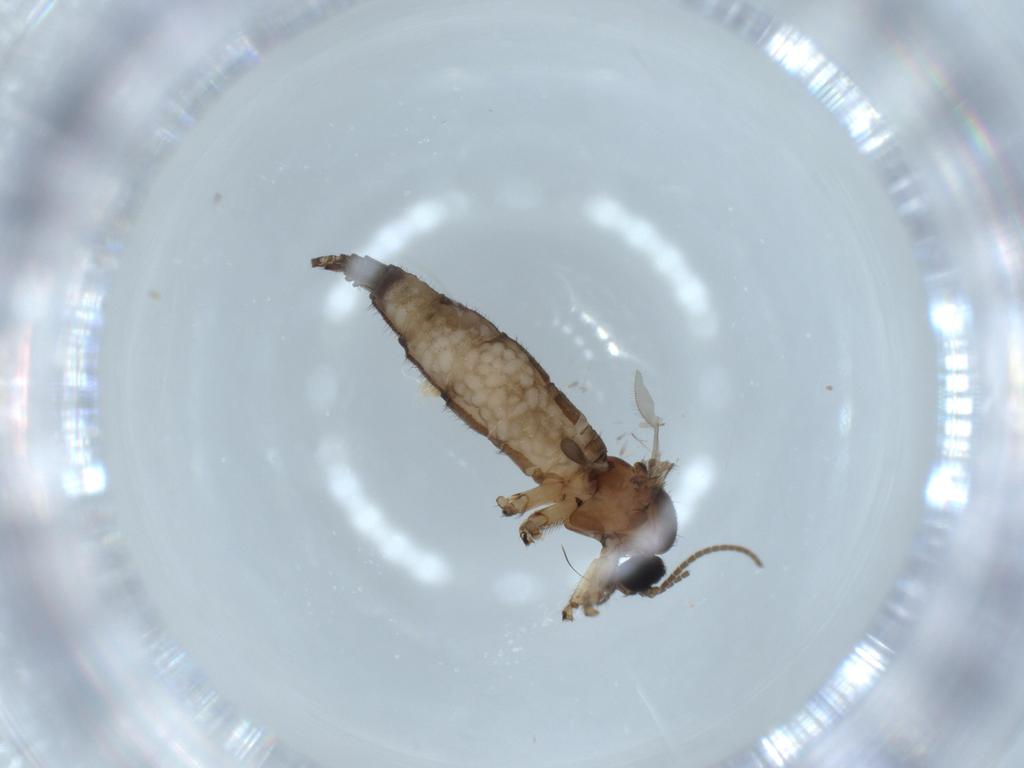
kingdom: Animalia
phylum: Arthropoda
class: Insecta
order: Diptera
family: Sciaridae
